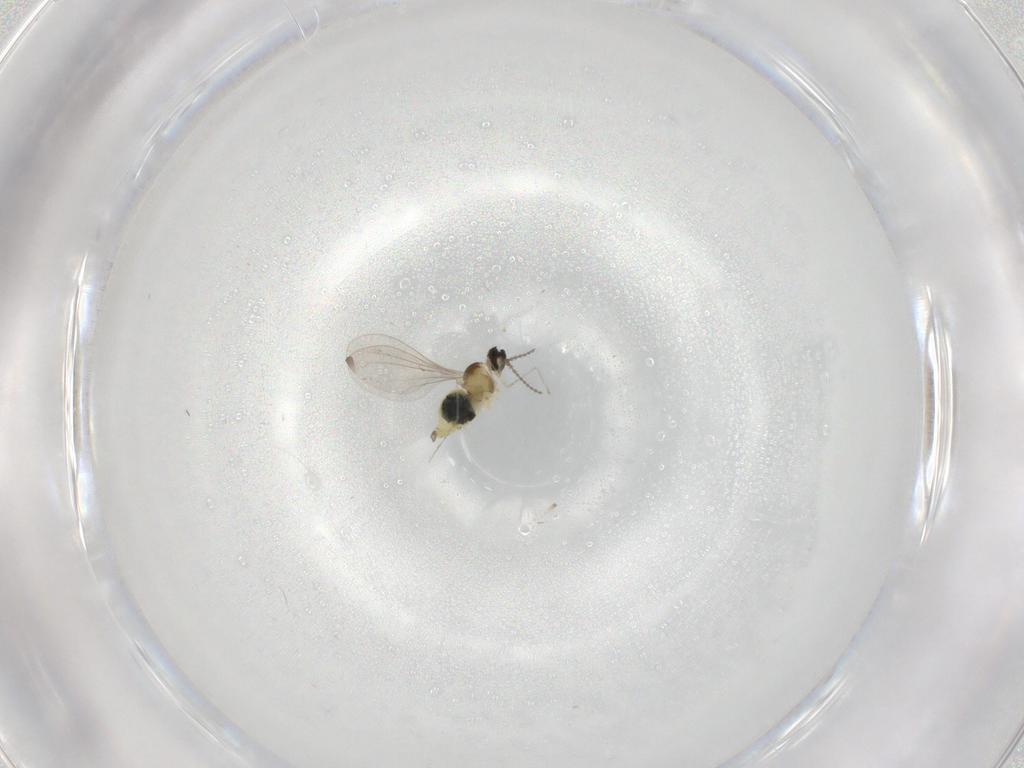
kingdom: Animalia
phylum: Arthropoda
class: Insecta
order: Diptera
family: Cecidomyiidae
